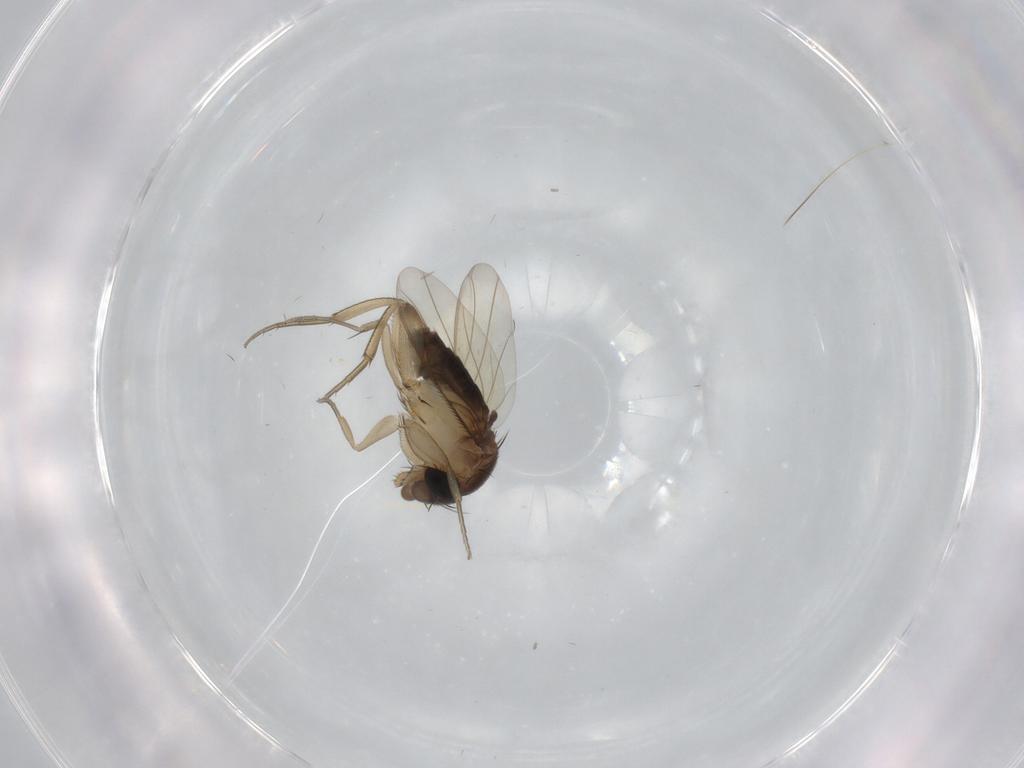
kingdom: Animalia
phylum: Arthropoda
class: Insecta
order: Diptera
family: Phoridae
